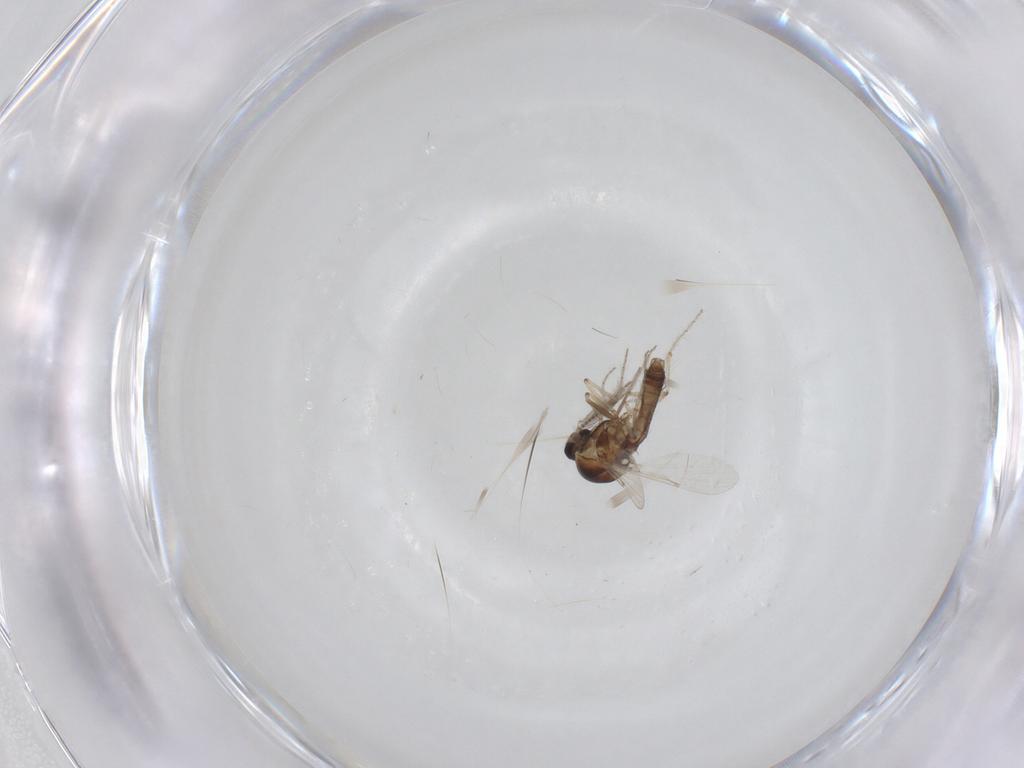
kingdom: Animalia
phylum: Arthropoda
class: Insecta
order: Diptera
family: Chironomidae
